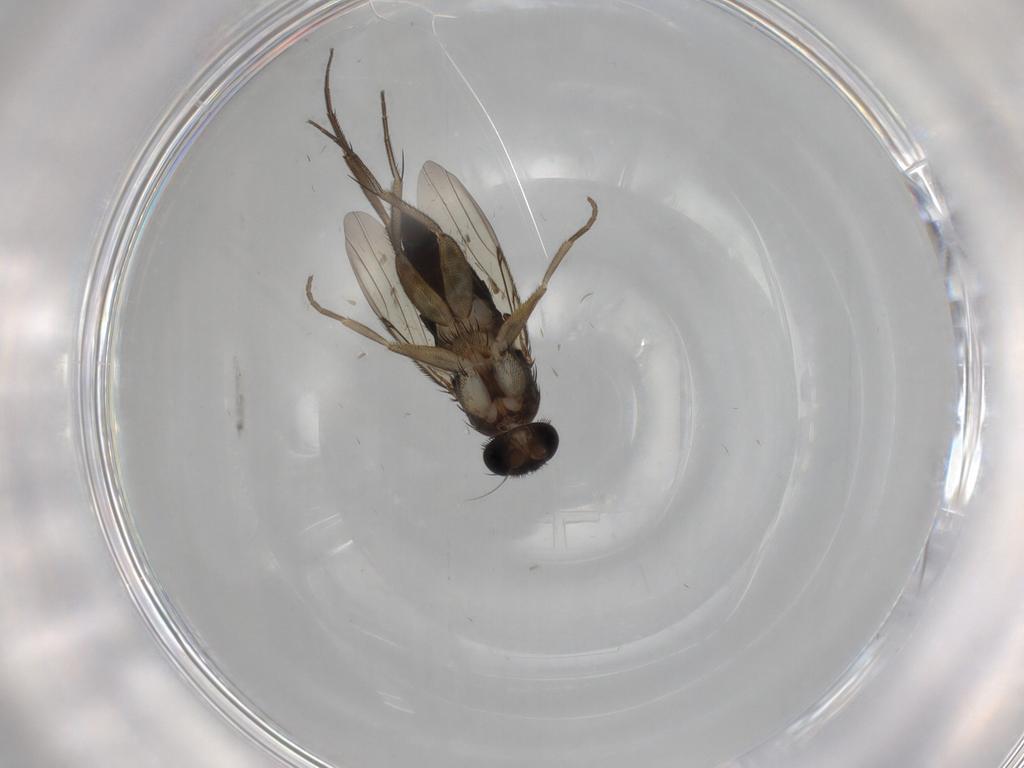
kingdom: Animalia
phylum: Arthropoda
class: Insecta
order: Diptera
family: Phoridae
